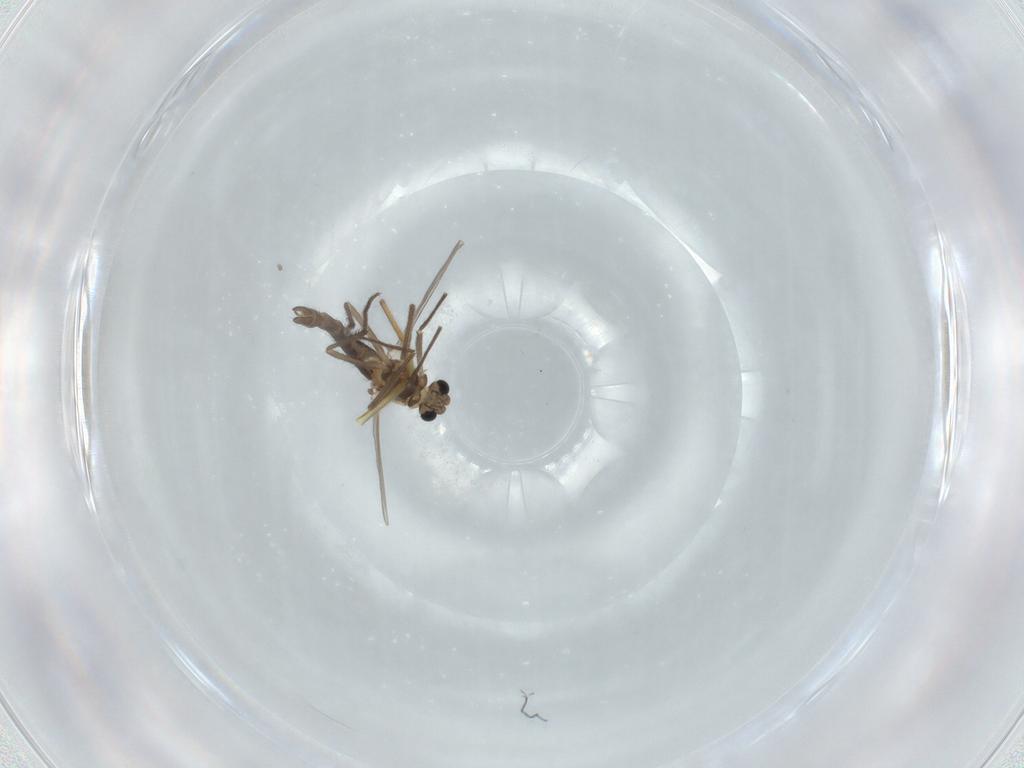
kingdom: Animalia
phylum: Arthropoda
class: Insecta
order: Diptera
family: Chironomidae
